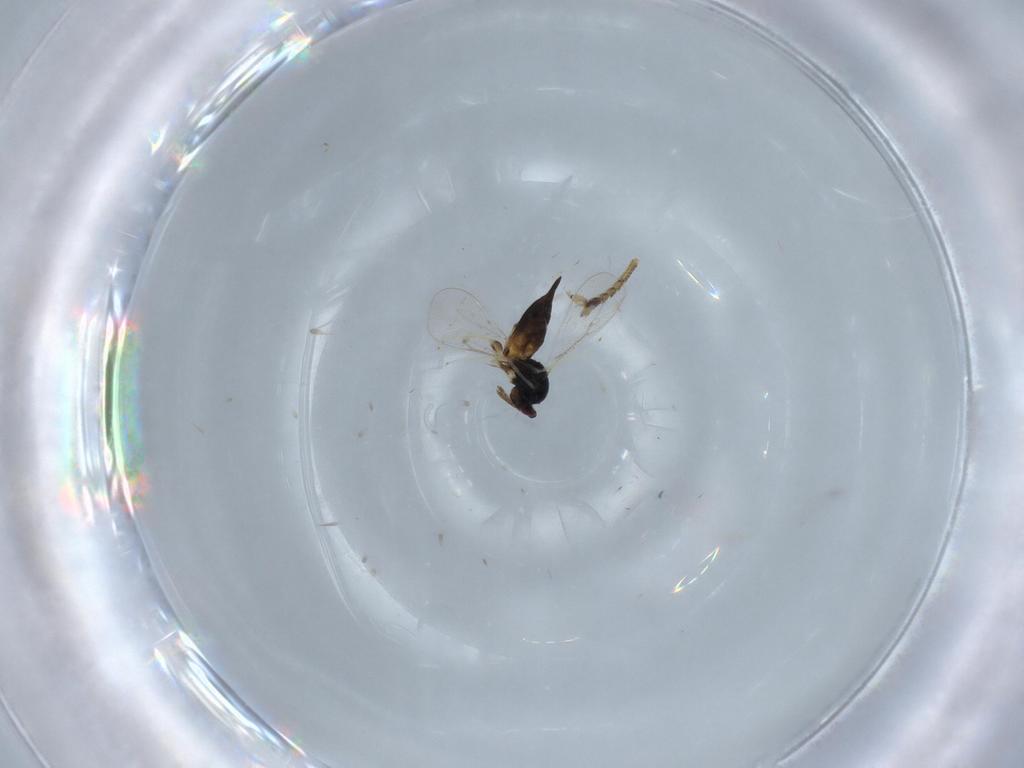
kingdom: Animalia
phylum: Arthropoda
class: Insecta
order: Hymenoptera
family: Eulophidae
